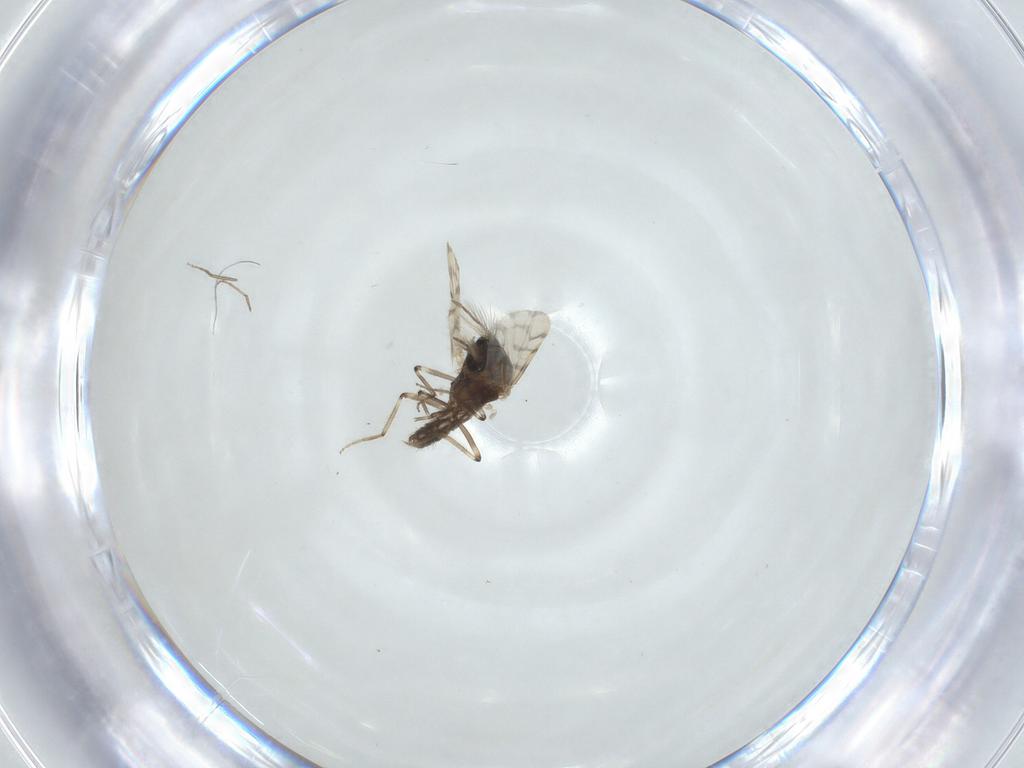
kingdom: Animalia
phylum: Arthropoda
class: Insecta
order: Diptera
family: Ceratopogonidae
